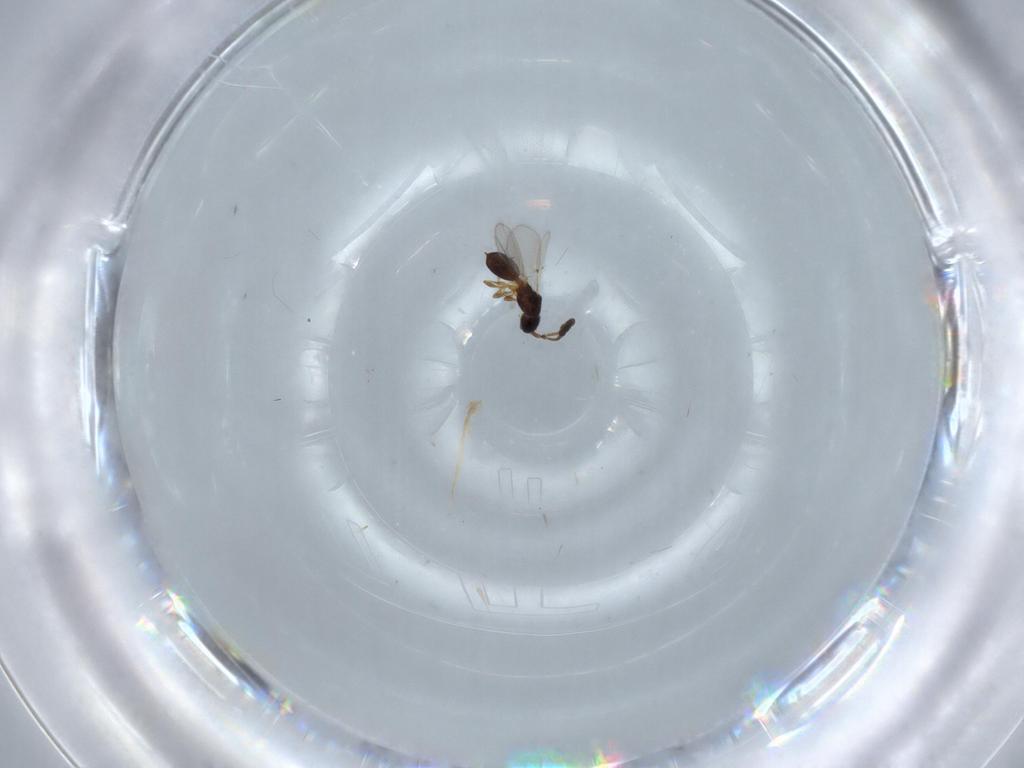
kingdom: Animalia
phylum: Arthropoda
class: Insecta
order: Hymenoptera
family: Diapriidae
